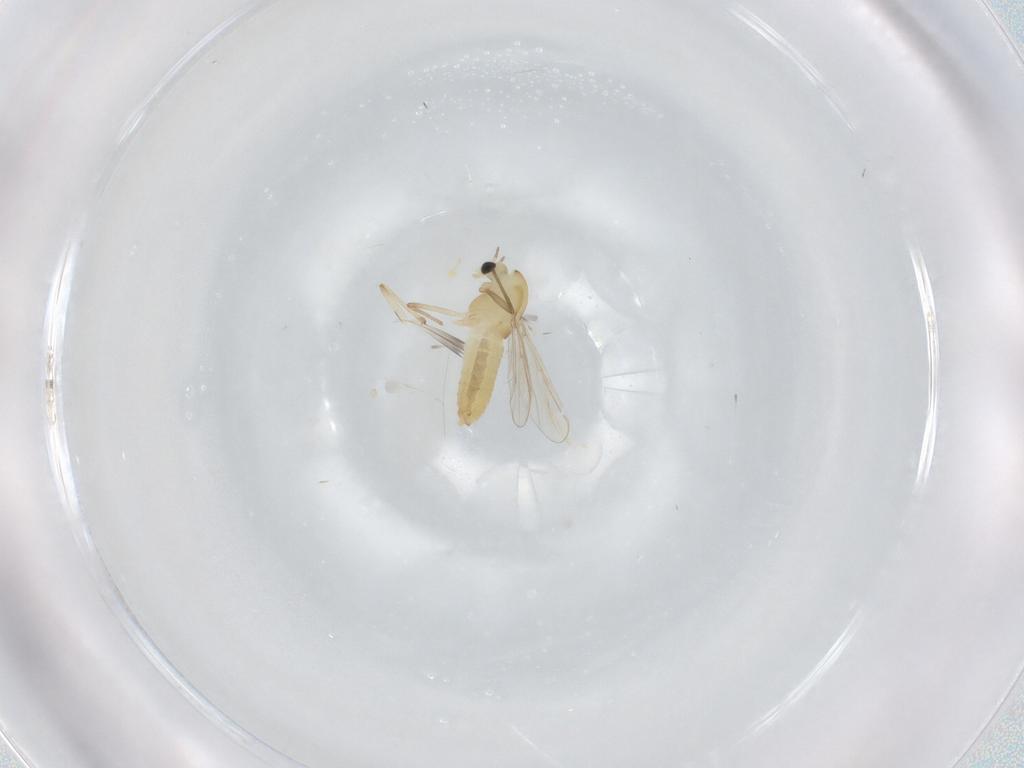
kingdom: Animalia
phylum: Arthropoda
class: Insecta
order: Diptera
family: Chironomidae
